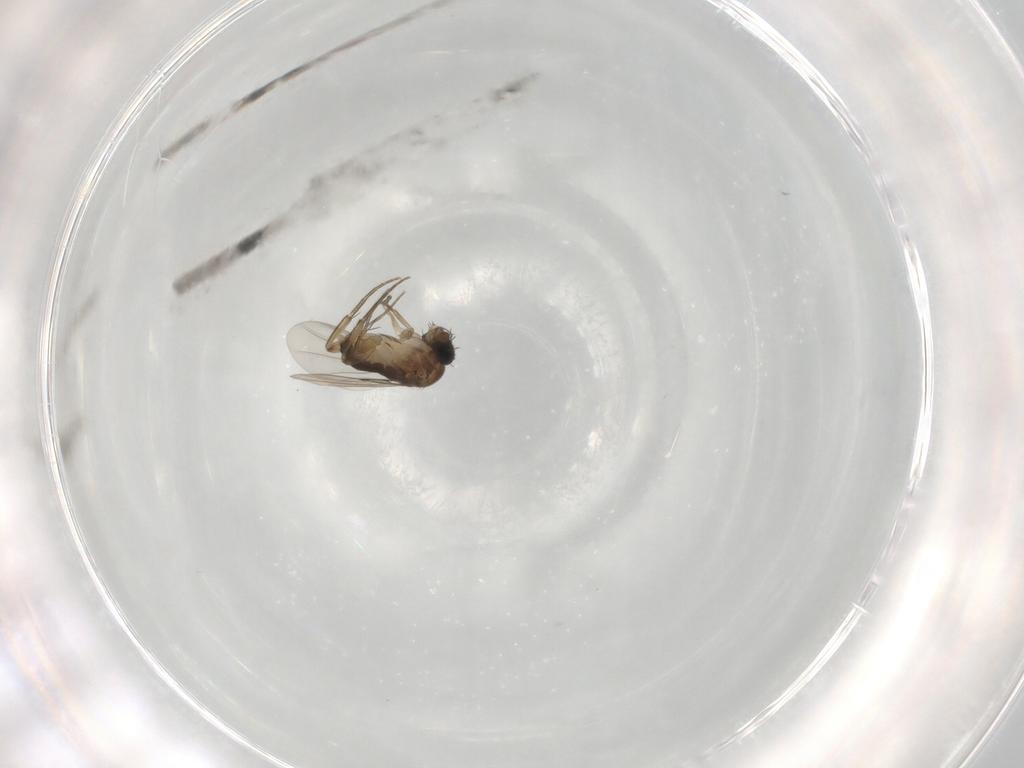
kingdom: Animalia
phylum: Arthropoda
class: Insecta
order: Diptera
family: Phoridae
